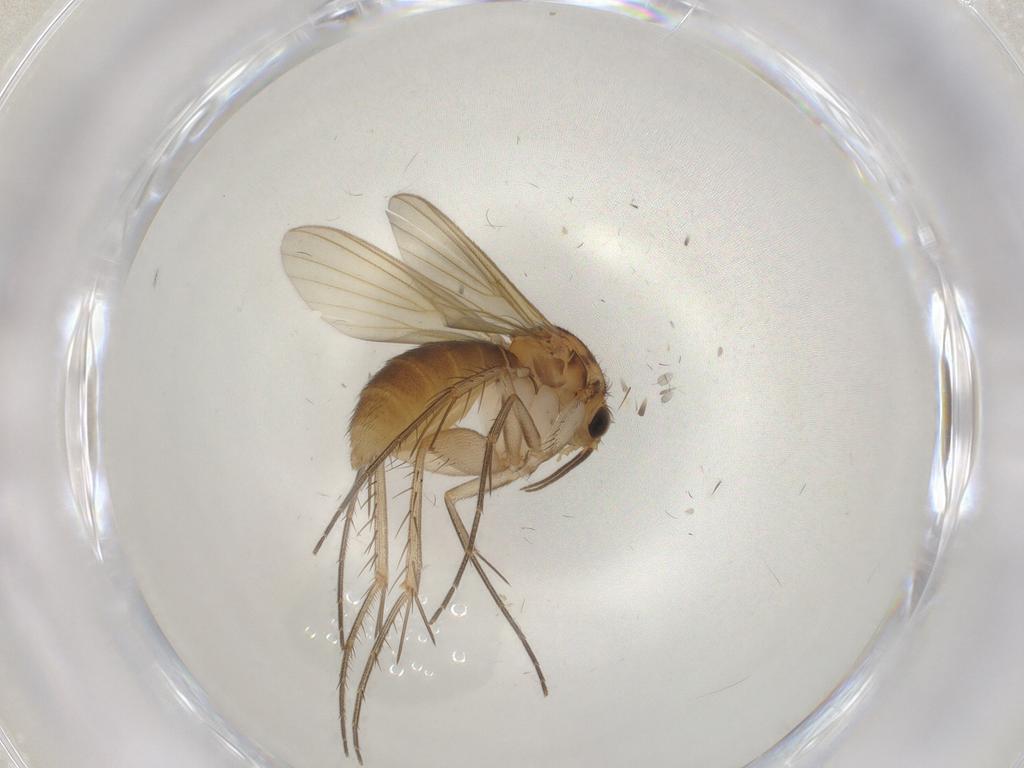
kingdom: Animalia
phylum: Arthropoda
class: Insecta
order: Diptera
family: Mycetophilidae
